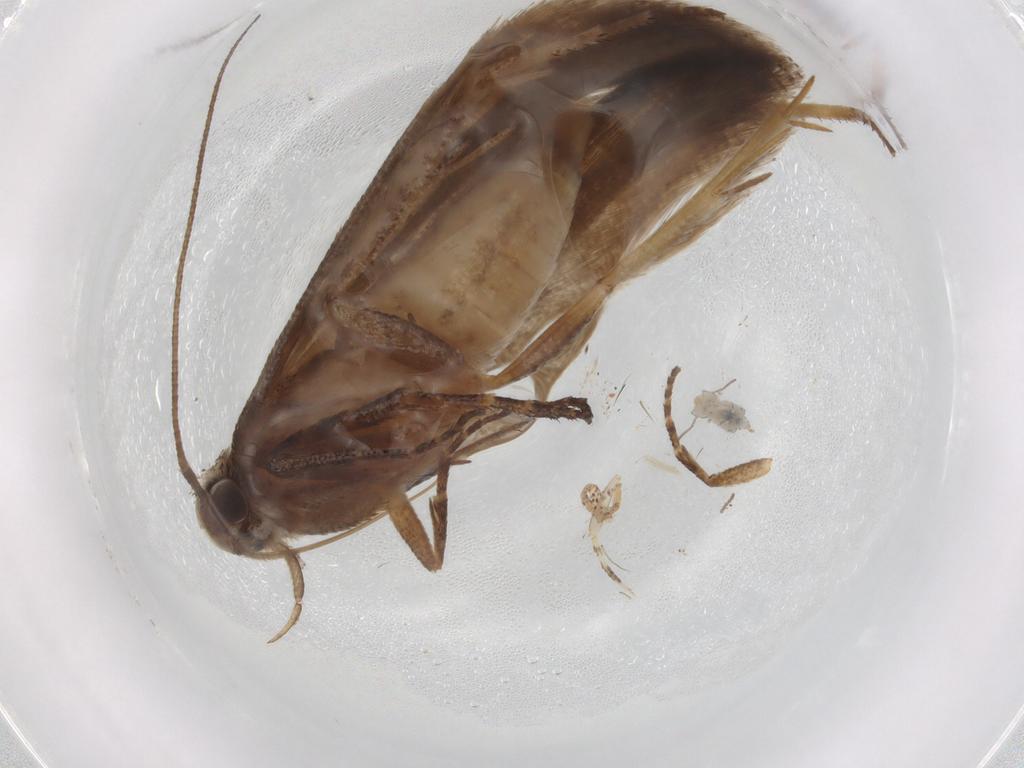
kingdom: Animalia
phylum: Arthropoda
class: Insecta
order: Lepidoptera
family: Gelechiidae
